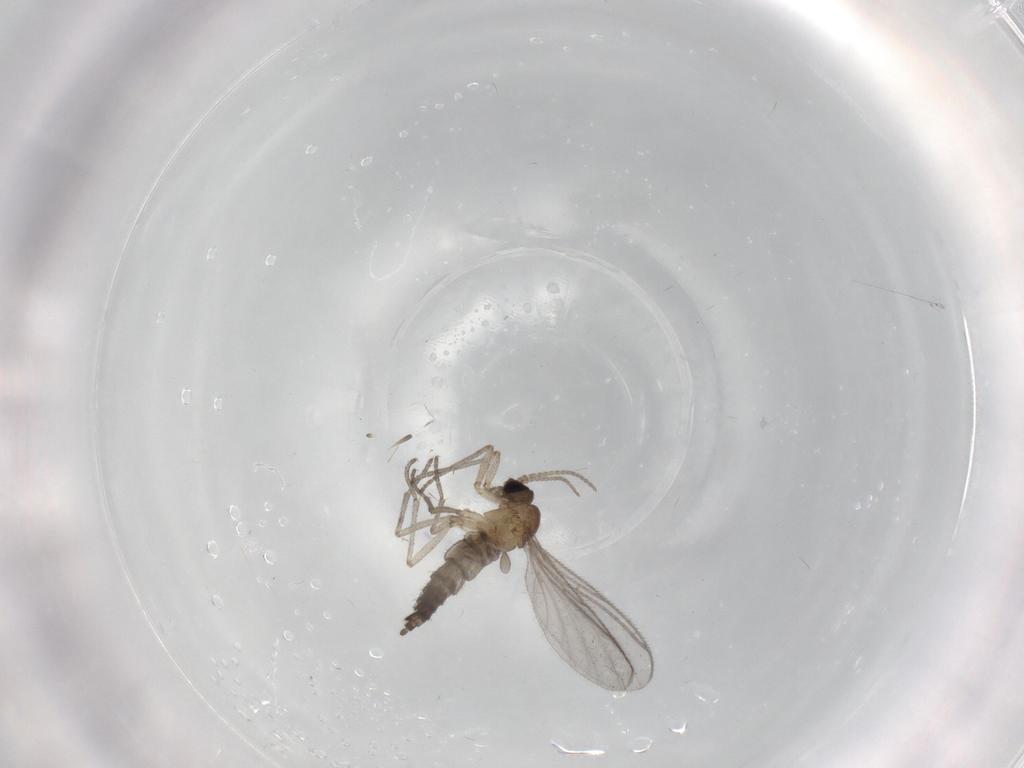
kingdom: Animalia
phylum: Arthropoda
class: Insecta
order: Diptera
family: Sciaridae
